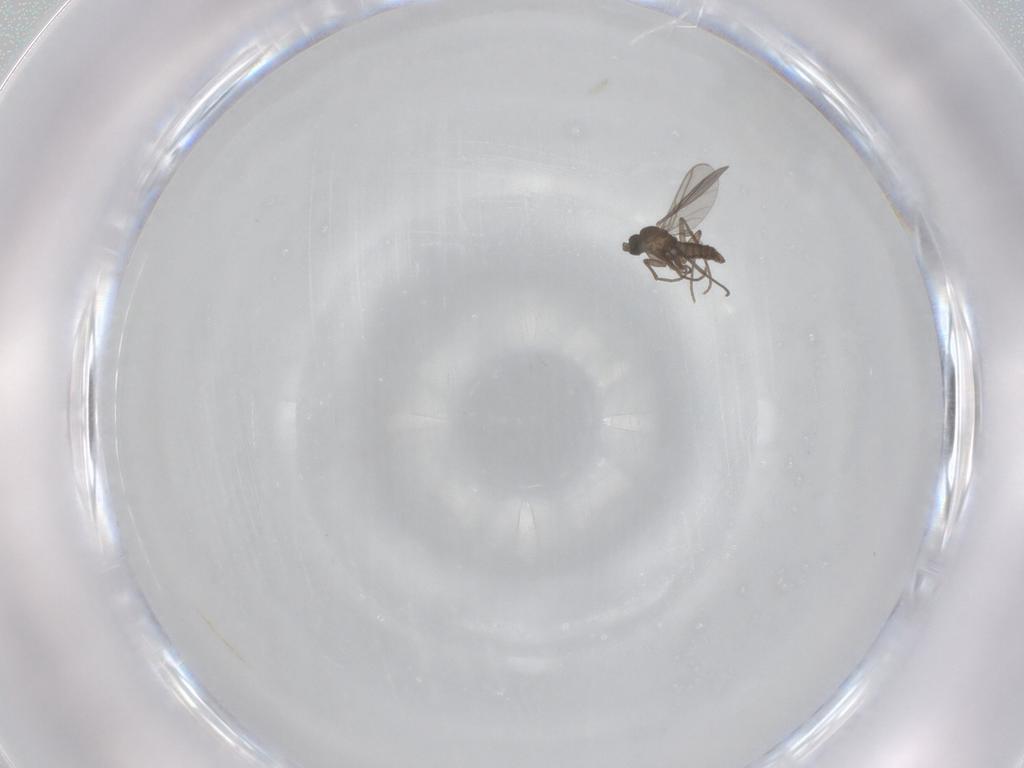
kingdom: Animalia
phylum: Arthropoda
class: Insecta
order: Diptera
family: Sciaridae
